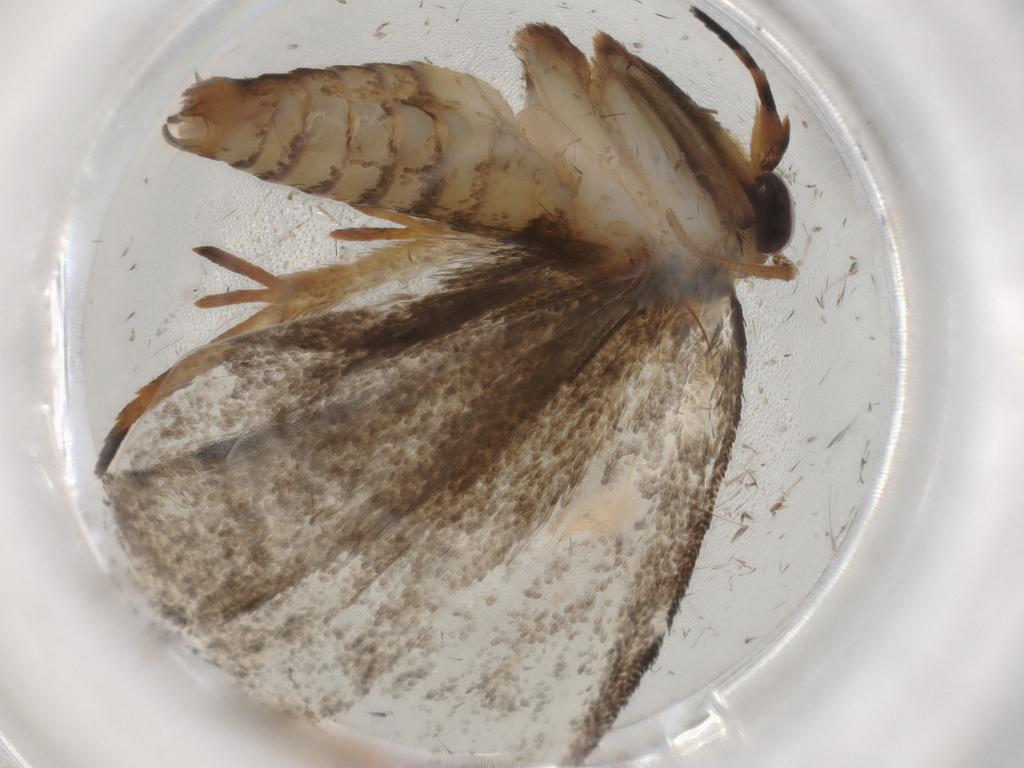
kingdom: Animalia
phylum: Arthropoda
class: Insecta
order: Lepidoptera
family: Tineidae
